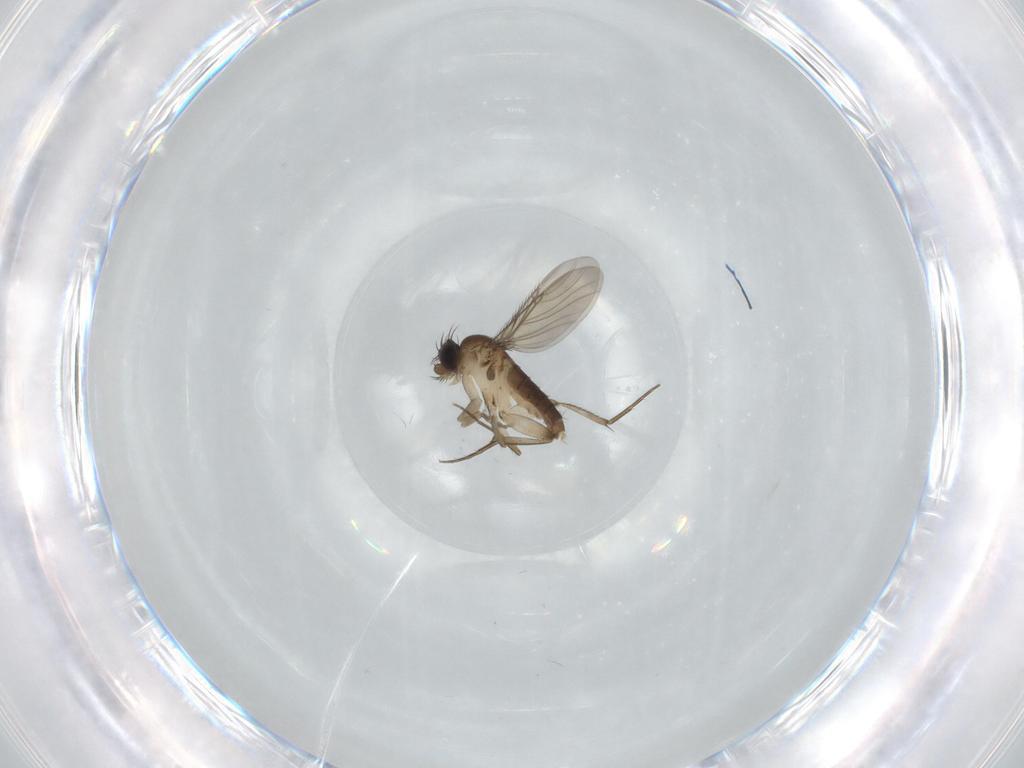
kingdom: Animalia
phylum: Arthropoda
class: Insecta
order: Diptera
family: Phoridae
